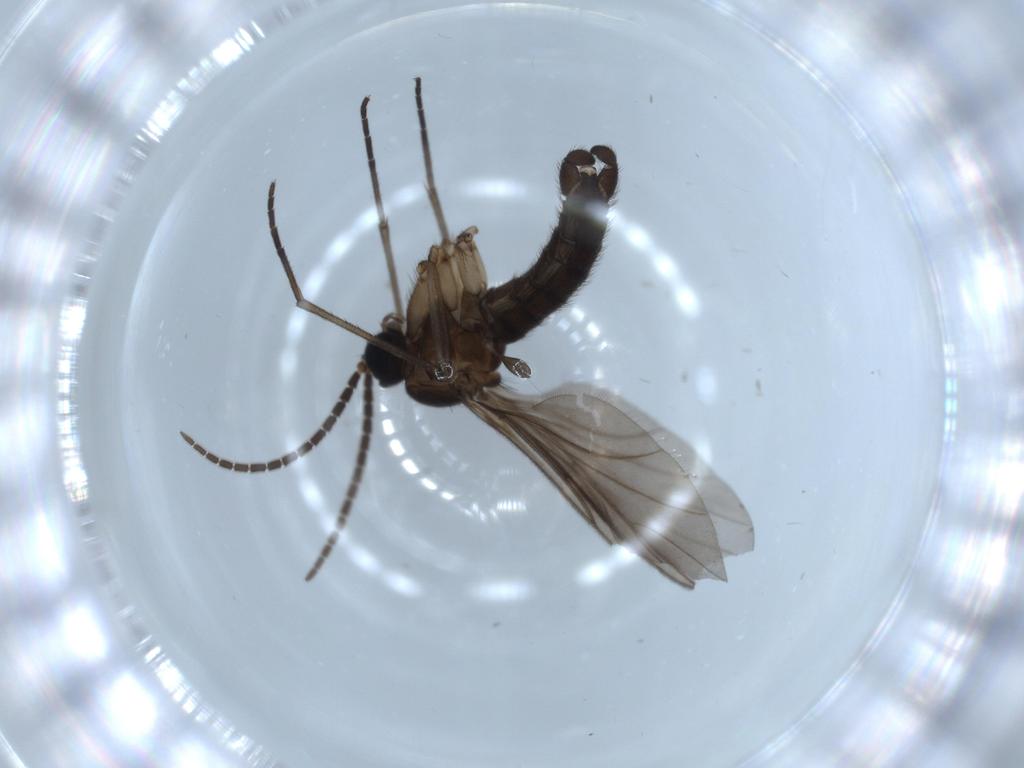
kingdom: Animalia
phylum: Arthropoda
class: Insecta
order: Diptera
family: Sciaridae
